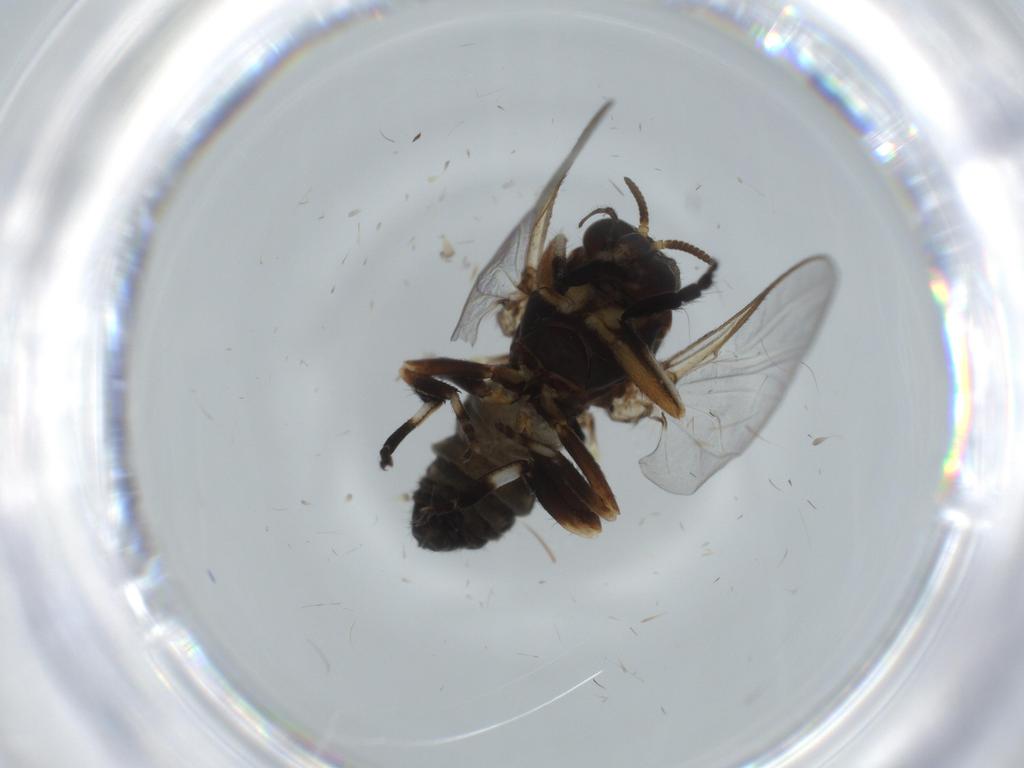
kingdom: Animalia
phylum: Arthropoda
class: Insecta
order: Diptera
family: Psychodidae
